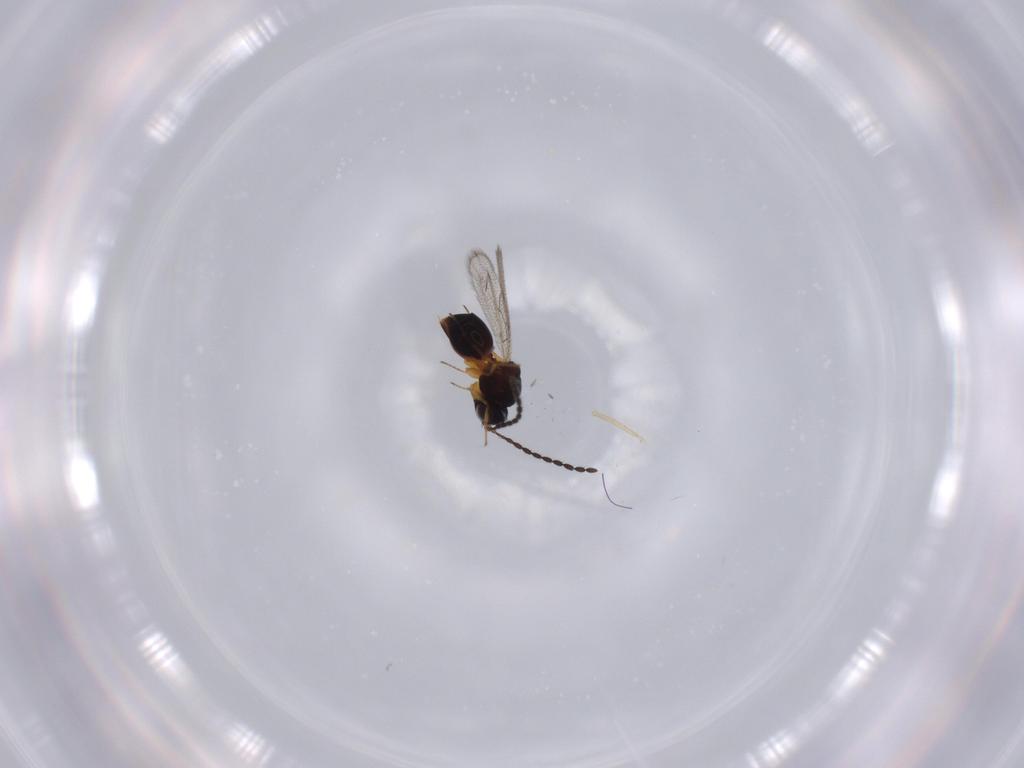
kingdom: Animalia
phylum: Arthropoda
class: Insecta
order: Hymenoptera
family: Figitidae
